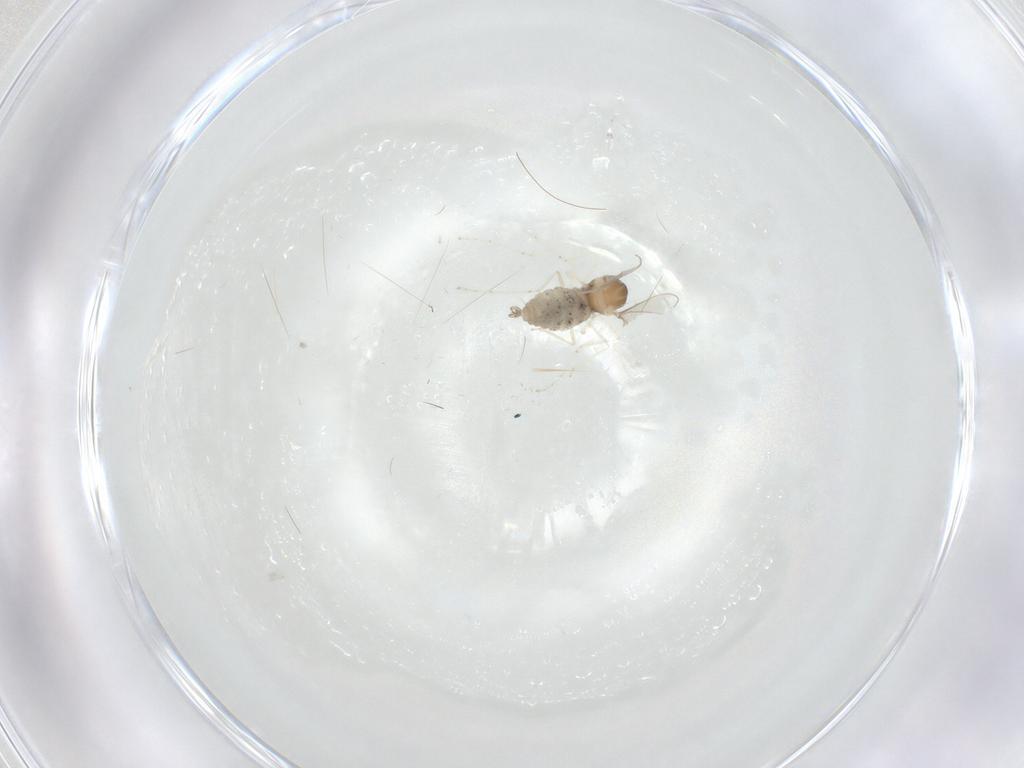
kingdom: Animalia
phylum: Arthropoda
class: Insecta
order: Diptera
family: Cecidomyiidae
